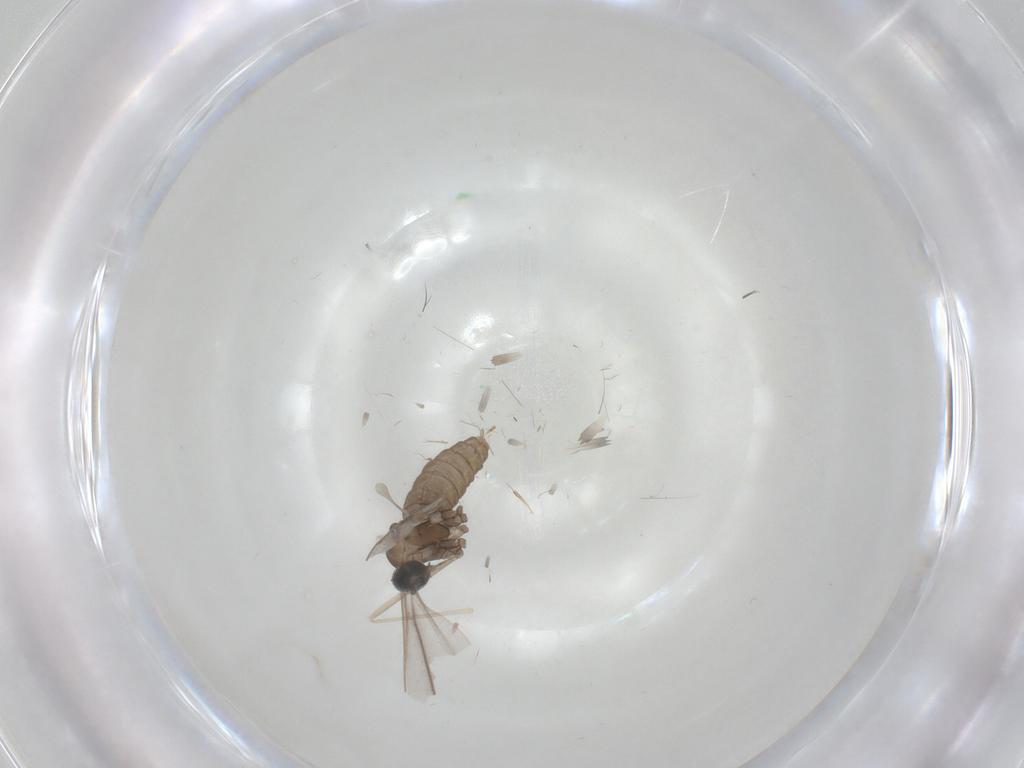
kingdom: Animalia
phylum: Arthropoda
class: Insecta
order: Diptera
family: Cecidomyiidae
